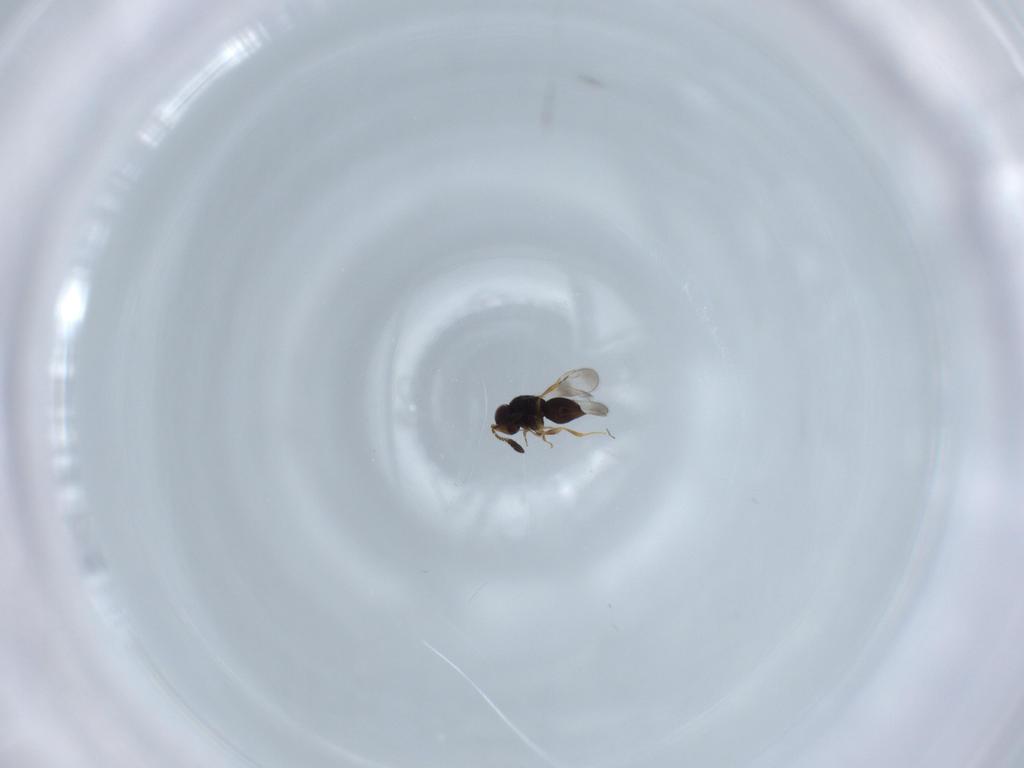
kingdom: Animalia
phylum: Arthropoda
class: Insecta
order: Hymenoptera
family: Ceraphronidae
